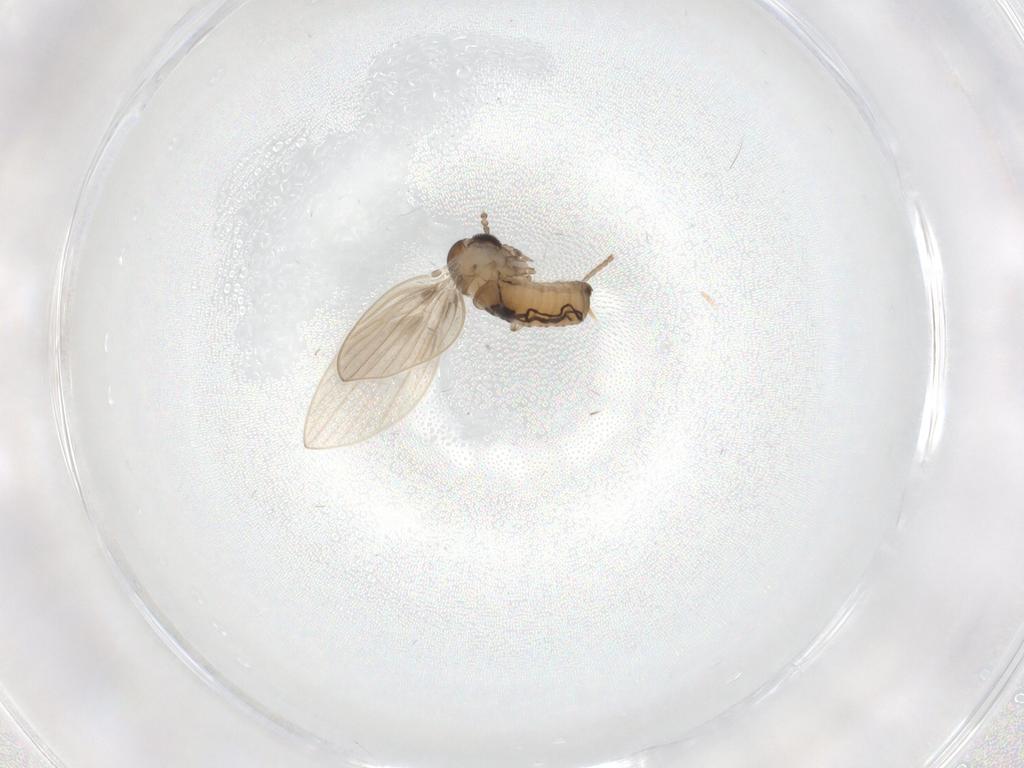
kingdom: Animalia
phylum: Arthropoda
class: Insecta
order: Diptera
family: Psychodidae
